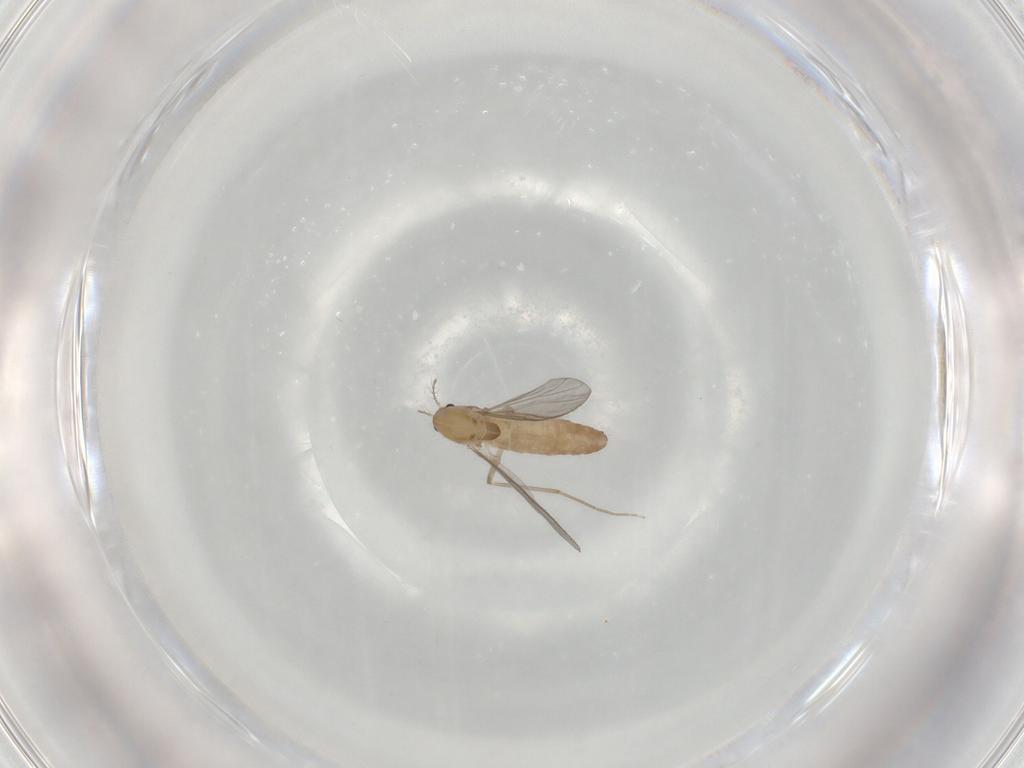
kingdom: Animalia
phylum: Arthropoda
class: Insecta
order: Diptera
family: Chironomidae
